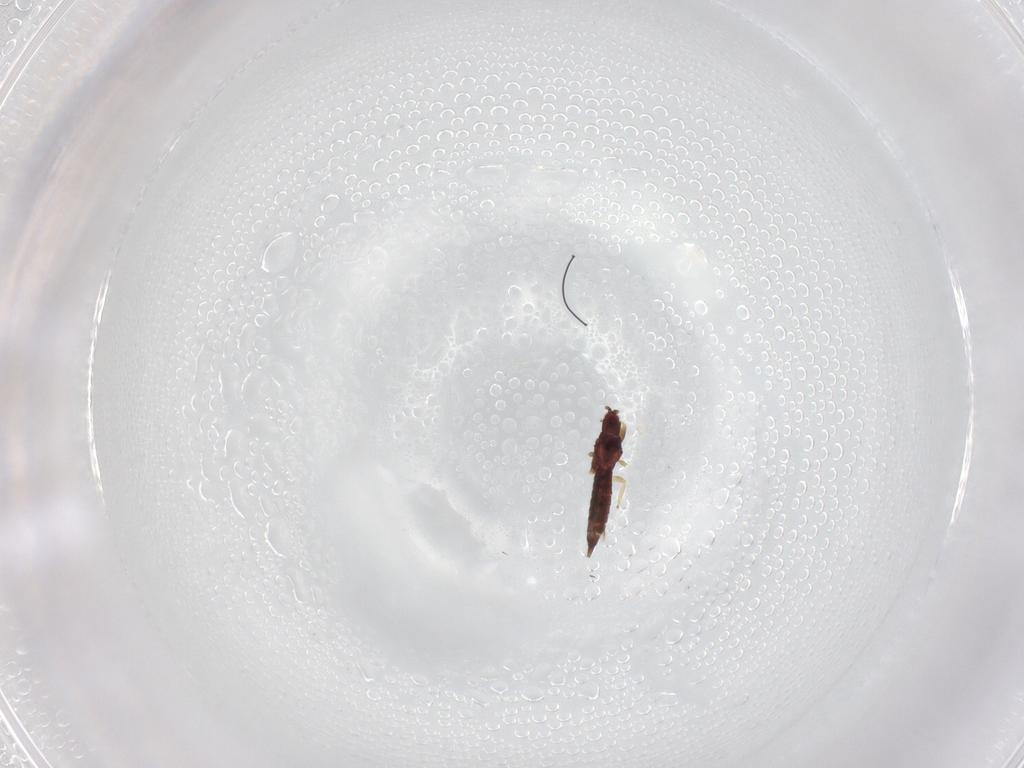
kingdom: Animalia
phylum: Arthropoda
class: Insecta
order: Thysanoptera
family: Phlaeothripidae
